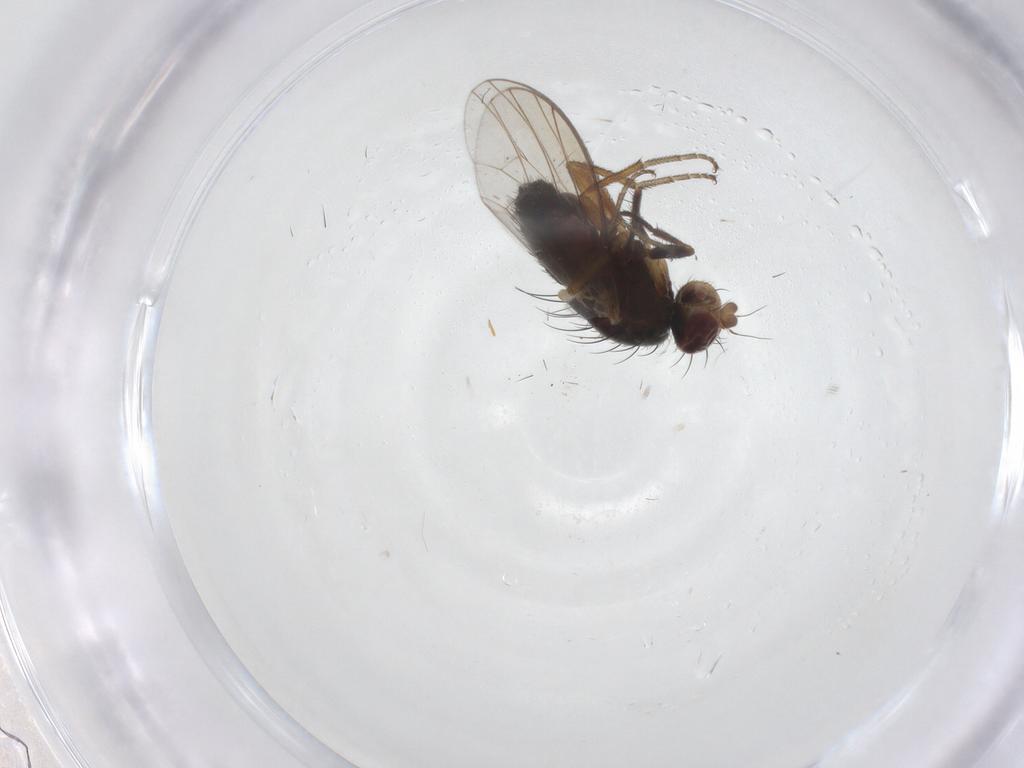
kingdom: Animalia
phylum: Arthropoda
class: Insecta
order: Diptera
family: Heleomyzidae
